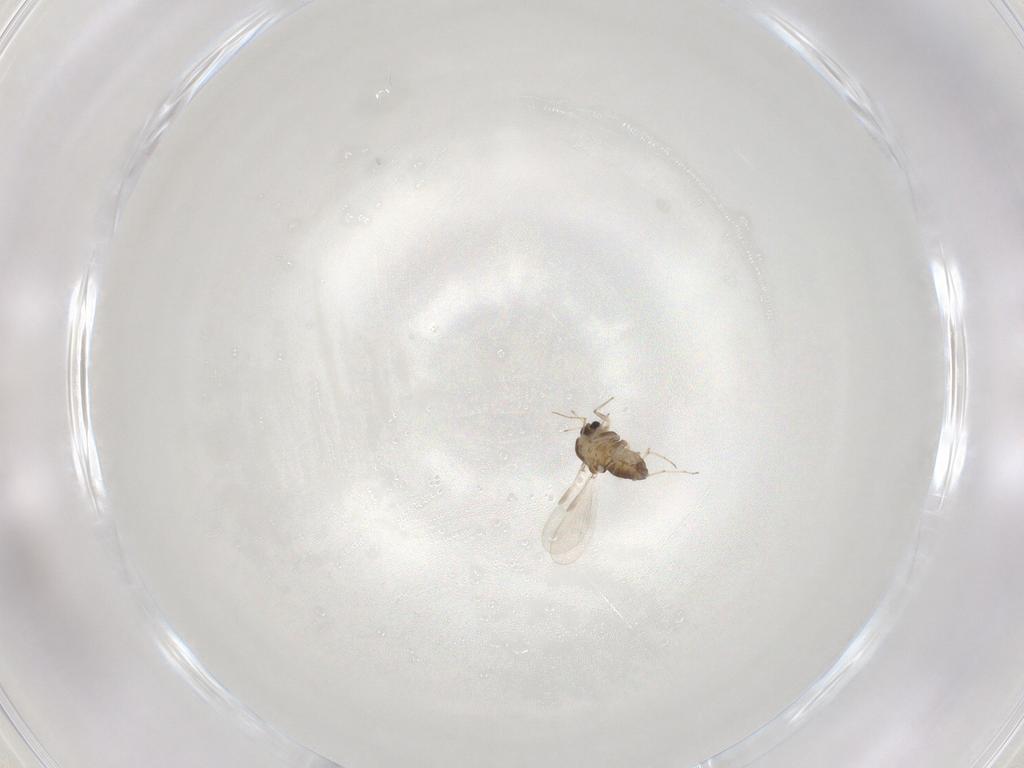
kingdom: Animalia
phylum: Arthropoda
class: Insecta
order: Diptera
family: Chironomidae
